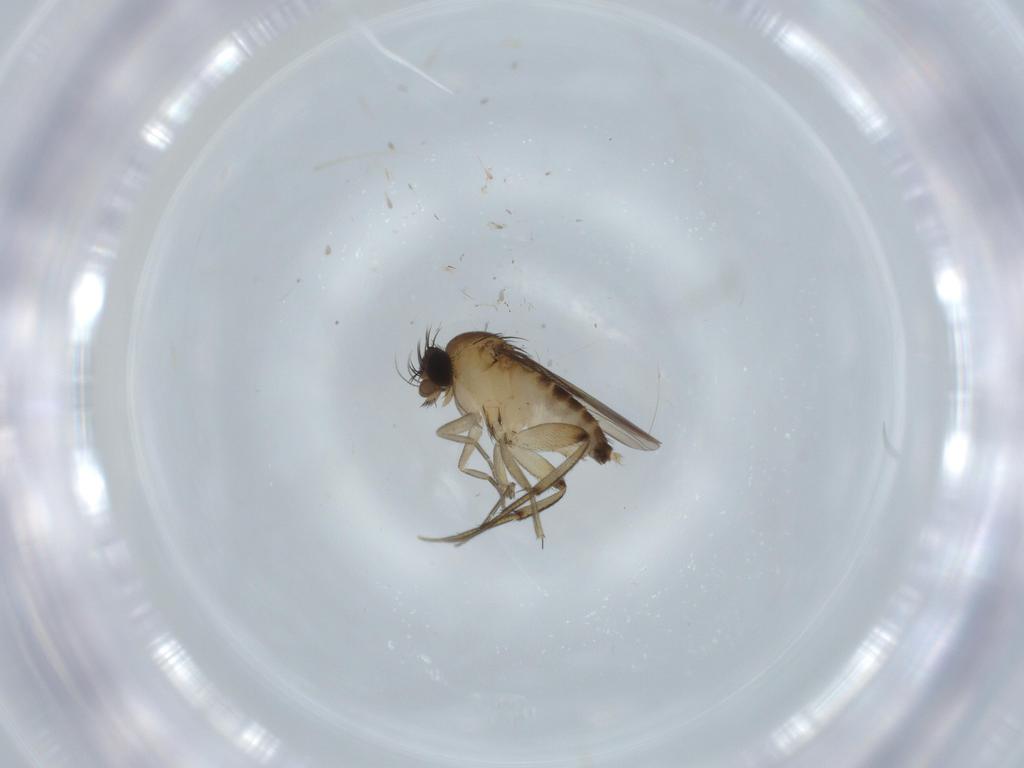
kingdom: Animalia
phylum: Arthropoda
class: Insecta
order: Diptera
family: Phoridae
